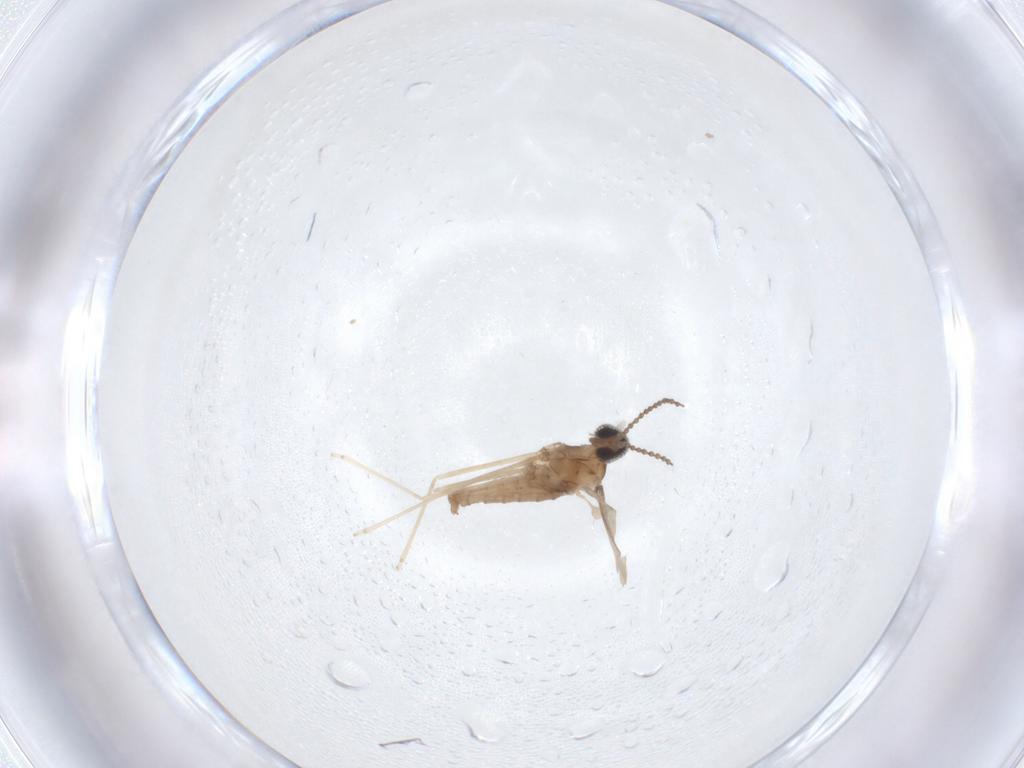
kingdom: Animalia
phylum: Arthropoda
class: Insecta
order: Diptera
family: Cecidomyiidae
